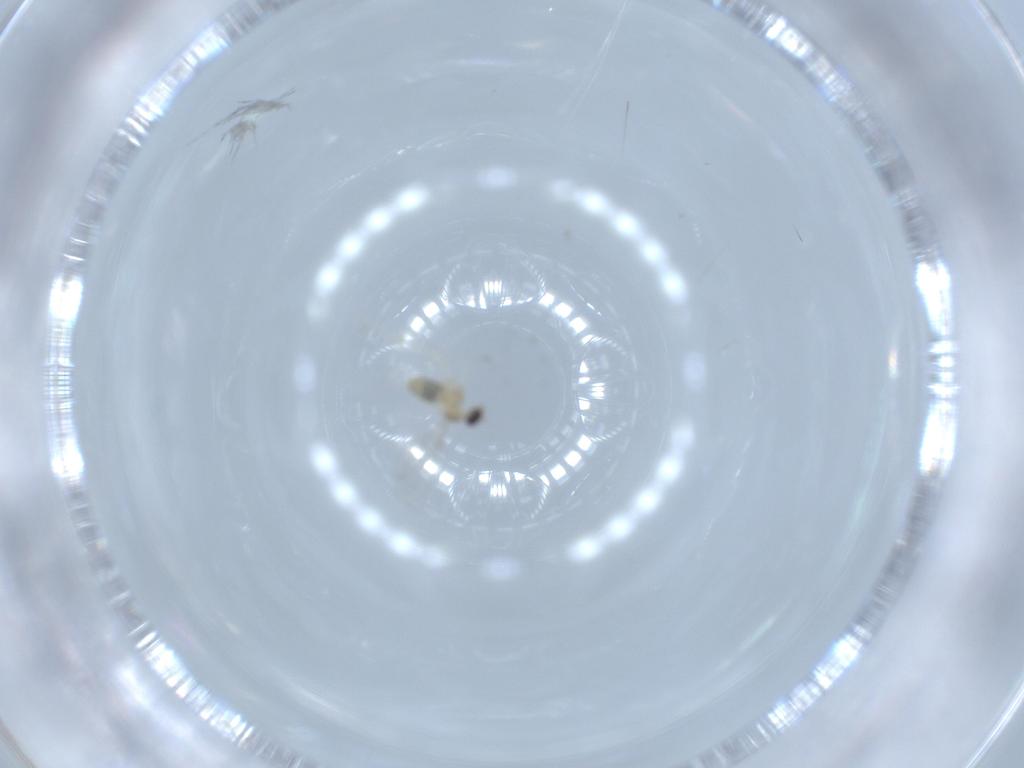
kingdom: Animalia
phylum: Arthropoda
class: Insecta
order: Diptera
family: Cecidomyiidae
